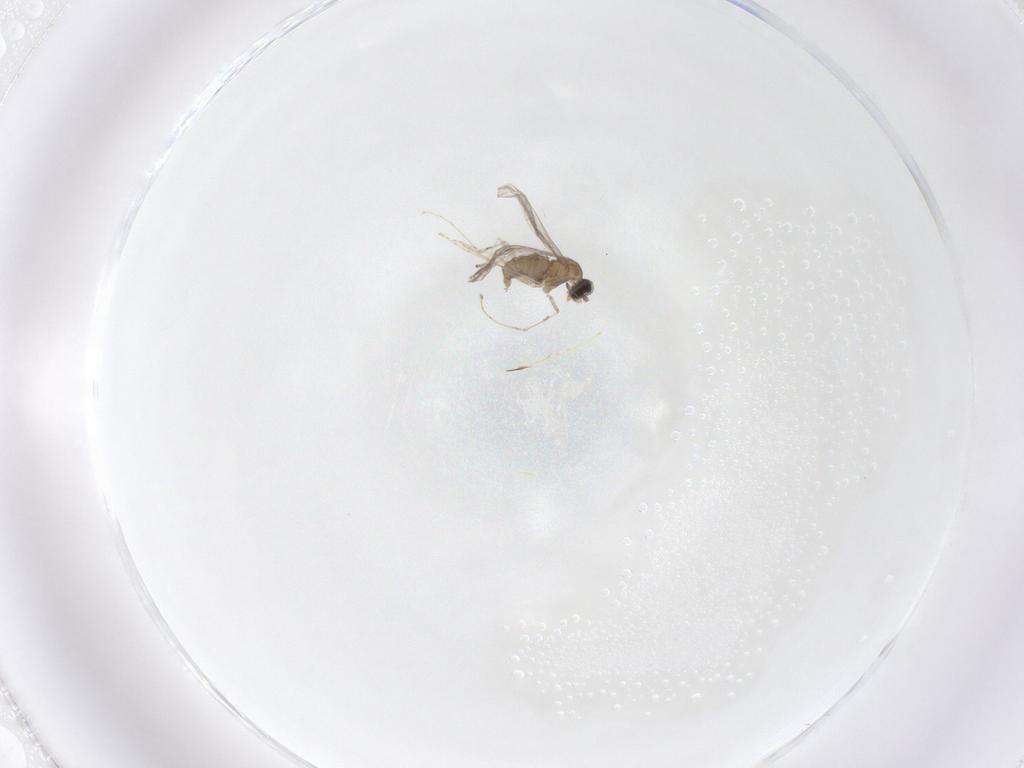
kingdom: Animalia
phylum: Arthropoda
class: Insecta
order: Diptera
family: Cecidomyiidae
